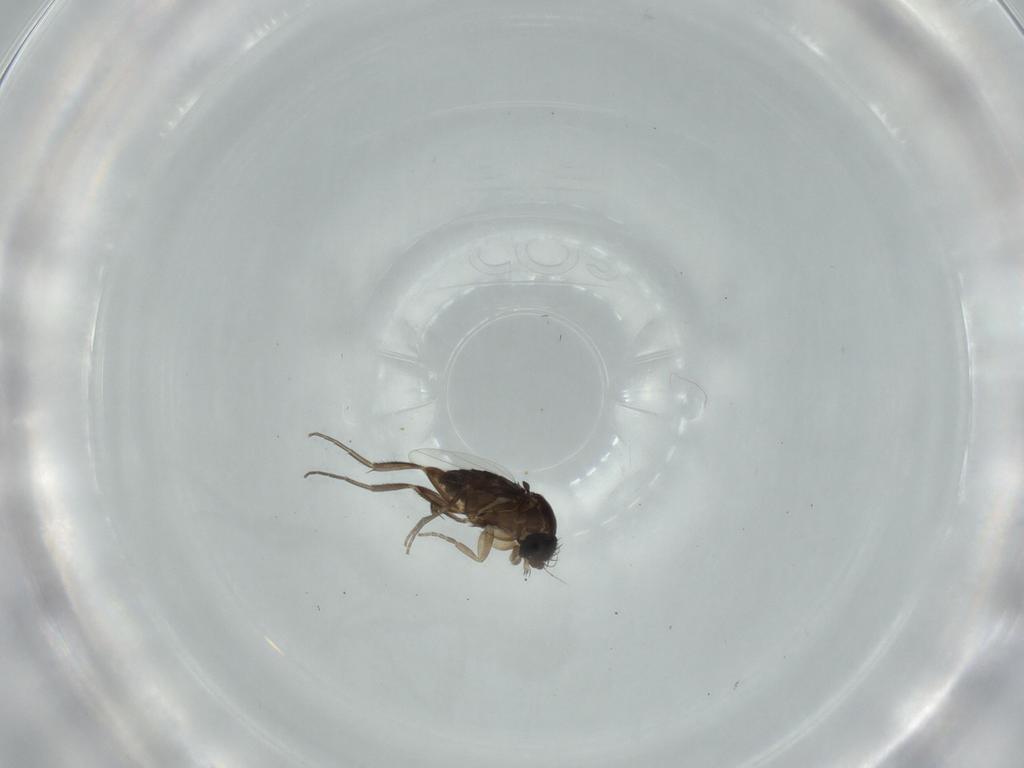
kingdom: Animalia
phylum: Arthropoda
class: Insecta
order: Diptera
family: Phoridae
